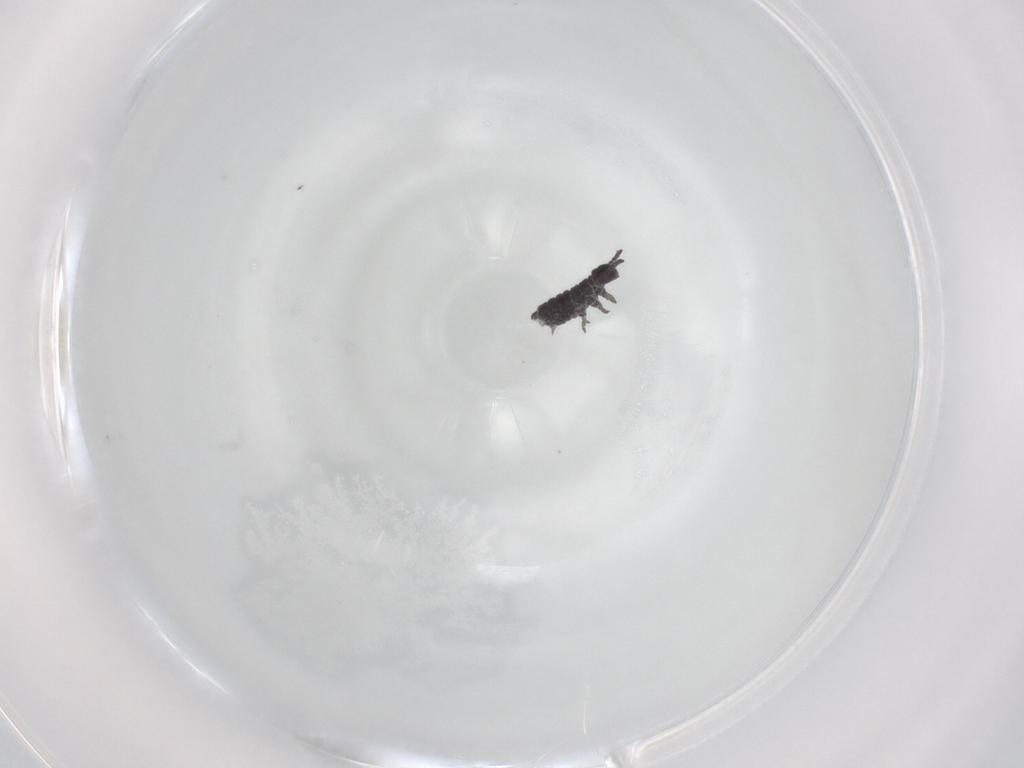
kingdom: Animalia
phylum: Arthropoda
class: Collembola
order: Poduromorpha
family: Hypogastruridae
